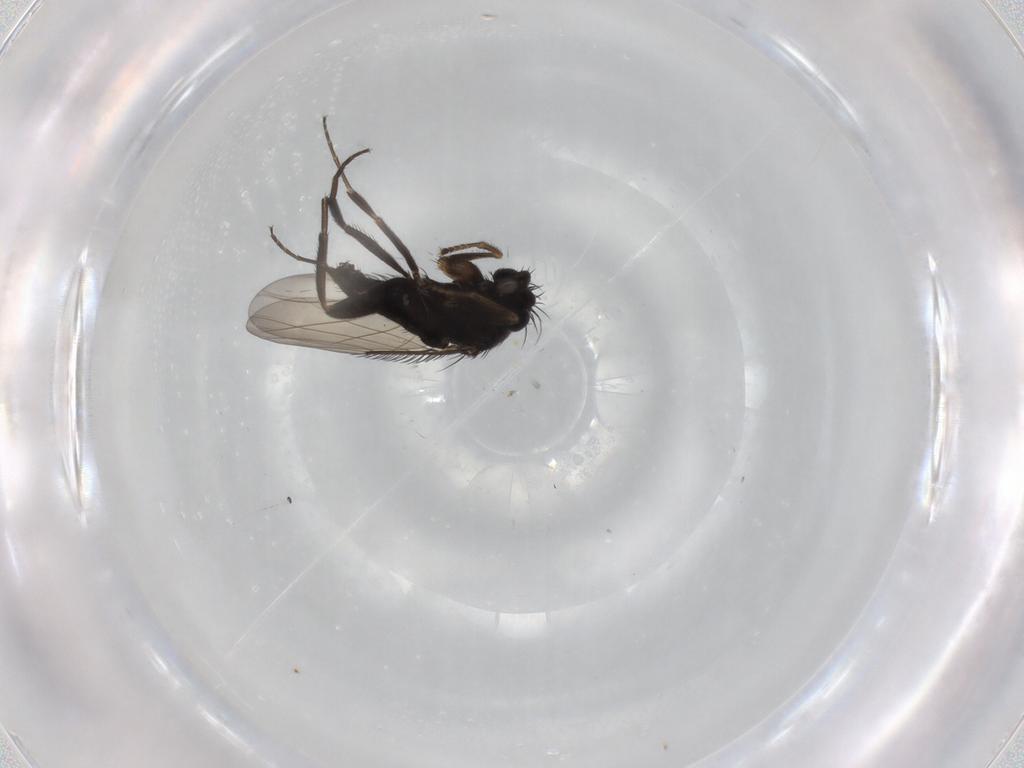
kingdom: Animalia
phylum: Arthropoda
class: Insecta
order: Diptera
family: Phoridae
